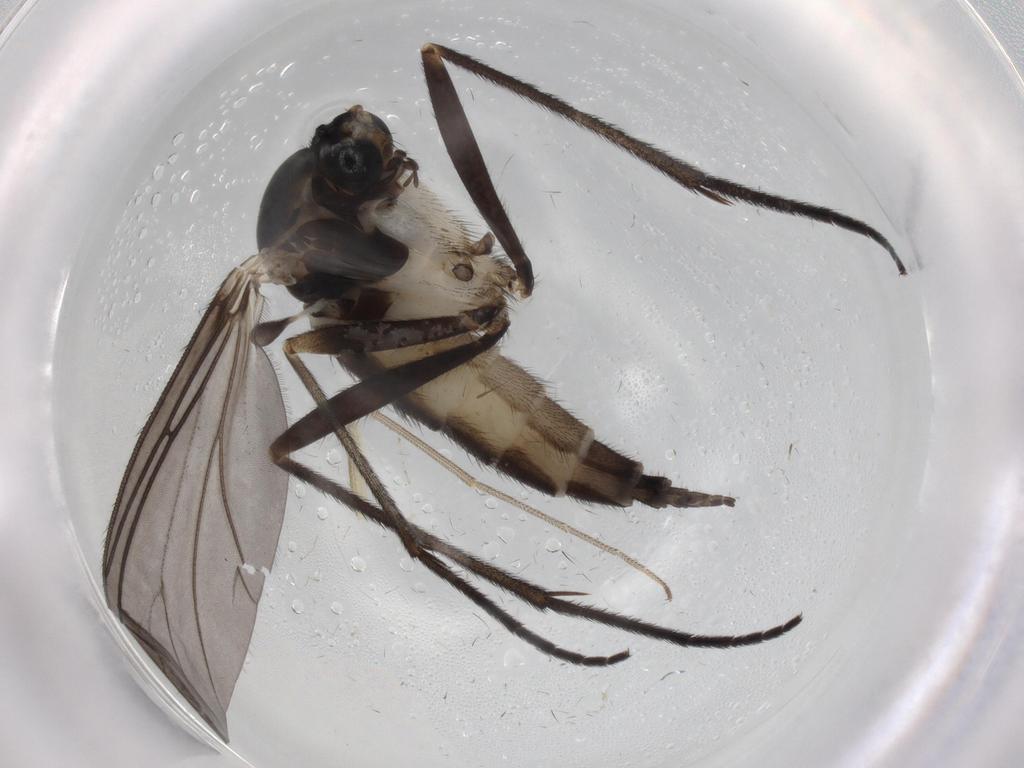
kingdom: Animalia
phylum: Arthropoda
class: Insecta
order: Diptera
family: Sciaridae
